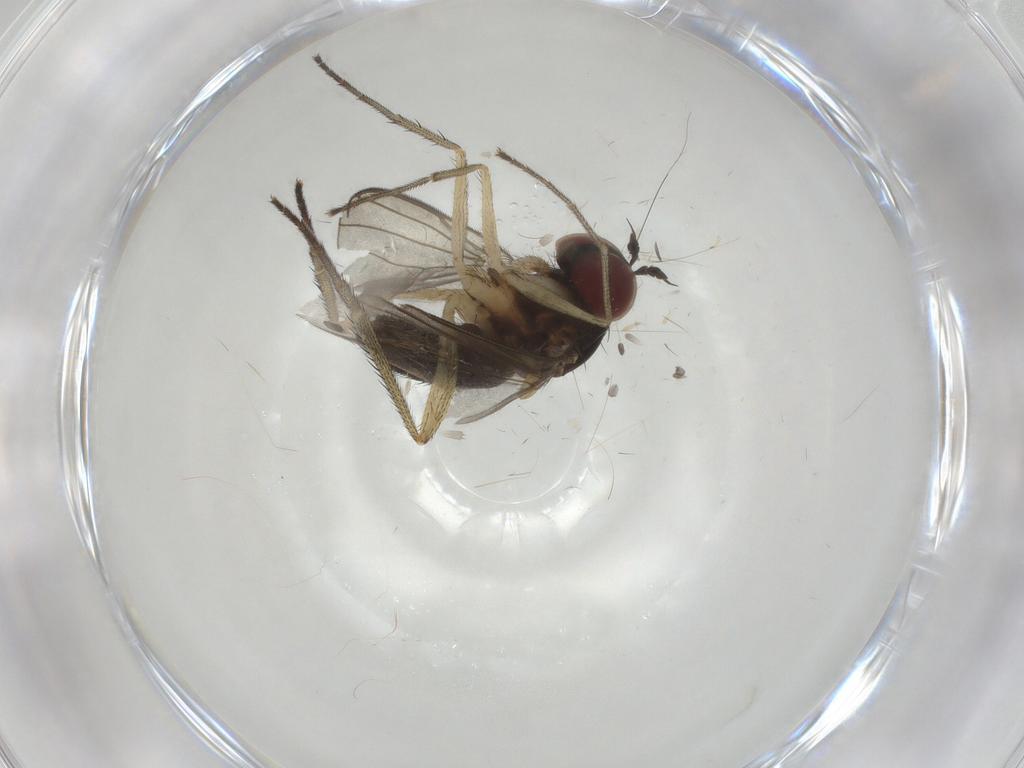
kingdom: Animalia
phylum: Arthropoda
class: Insecta
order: Diptera
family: Chironomidae
